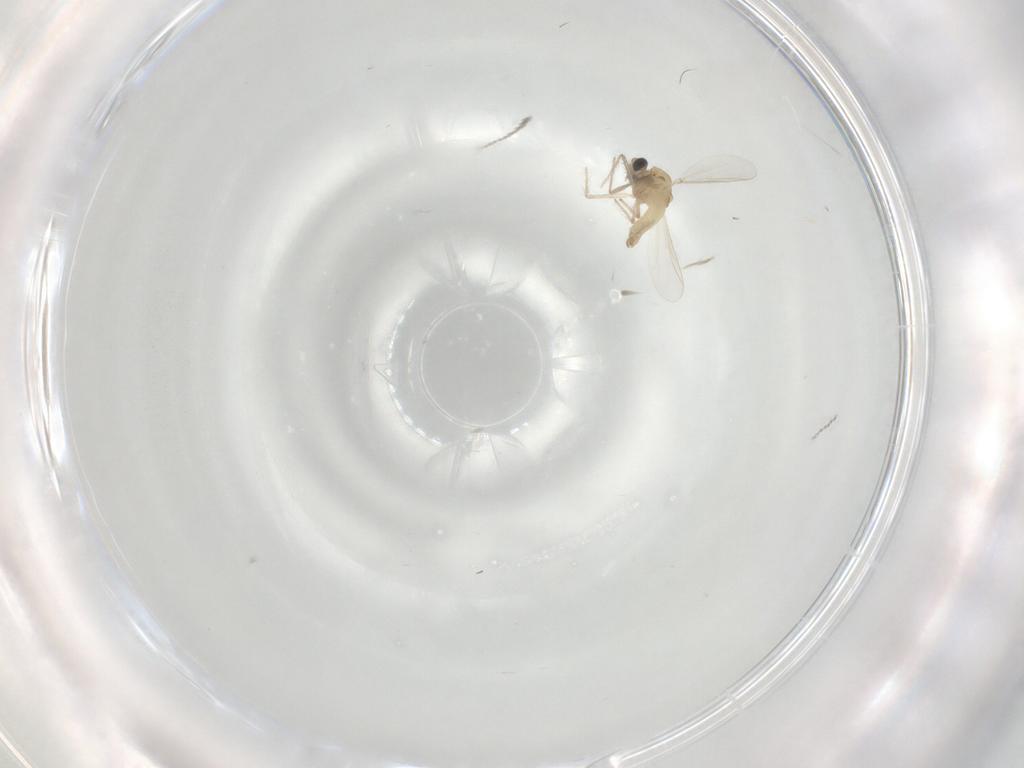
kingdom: Animalia
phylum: Arthropoda
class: Insecta
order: Diptera
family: Chironomidae
